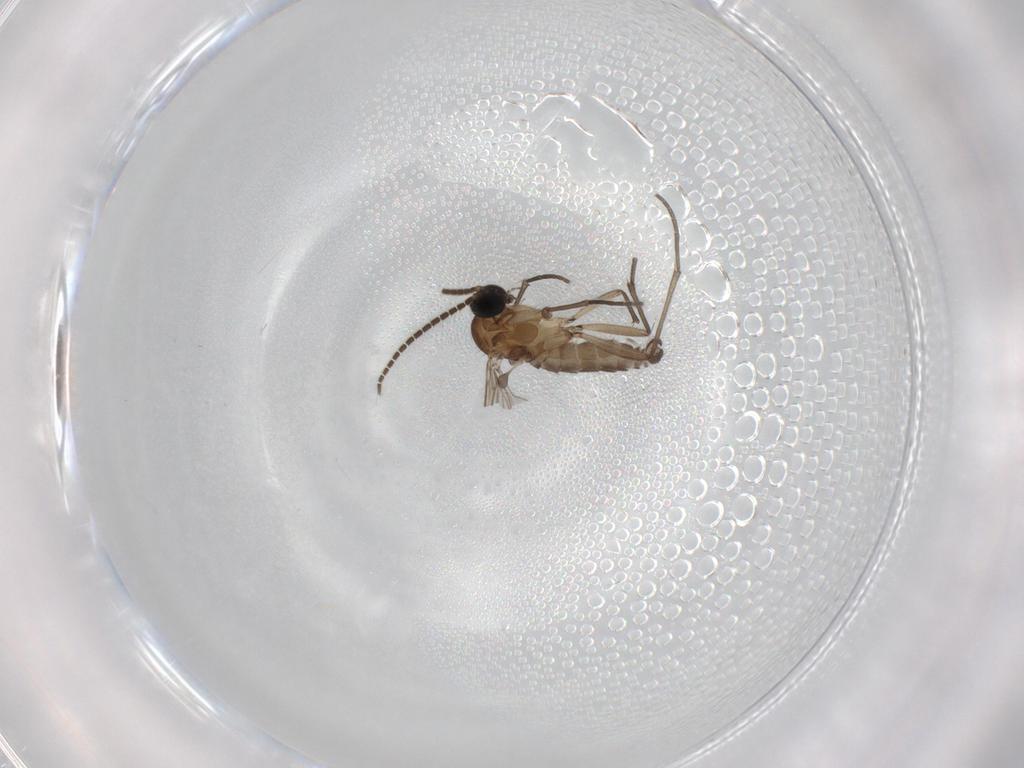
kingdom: Animalia
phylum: Arthropoda
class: Insecta
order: Diptera
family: Sciaridae
